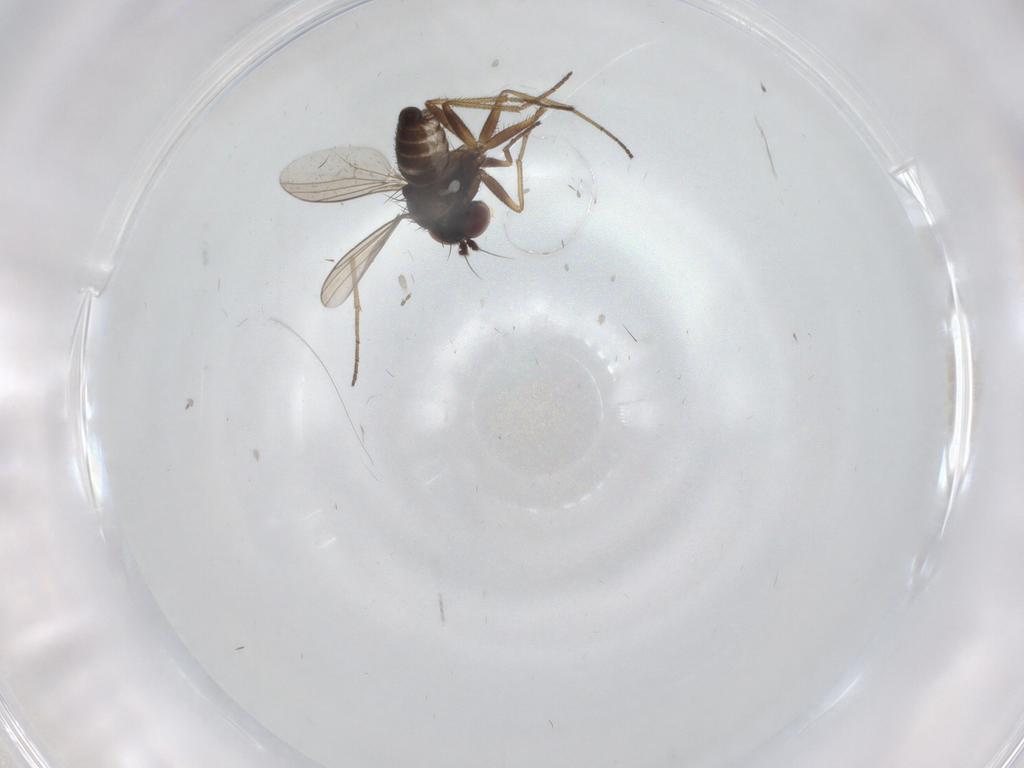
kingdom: Animalia
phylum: Arthropoda
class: Insecta
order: Diptera
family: Dolichopodidae
